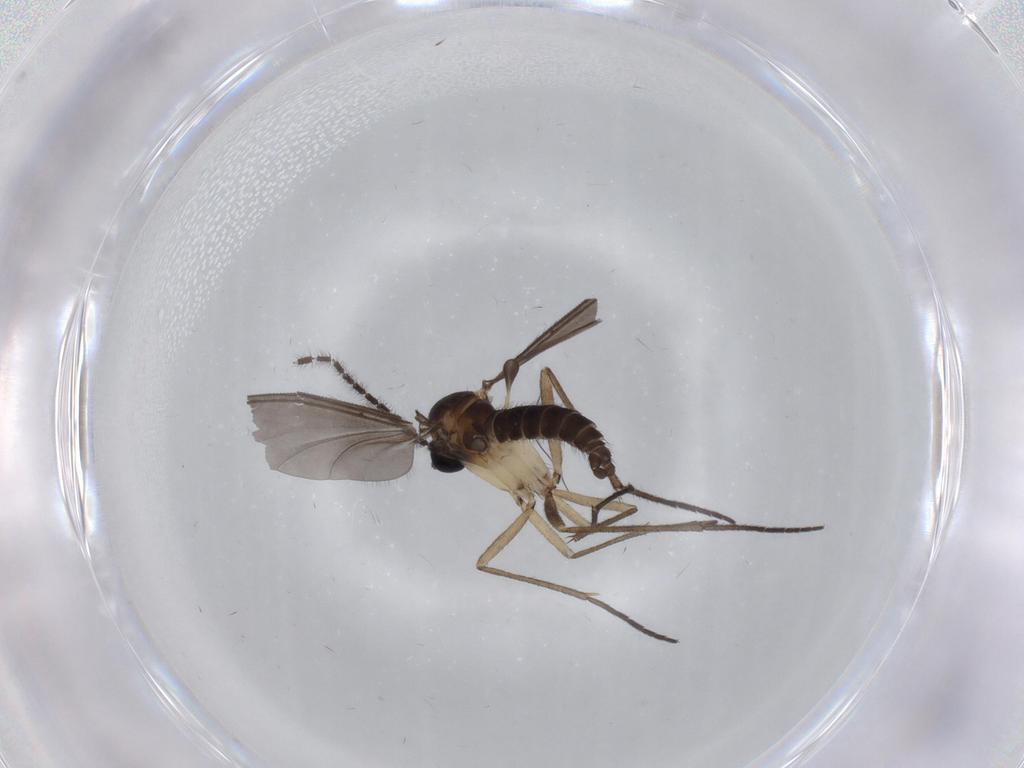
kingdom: Animalia
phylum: Arthropoda
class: Insecta
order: Diptera
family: Sciaridae
